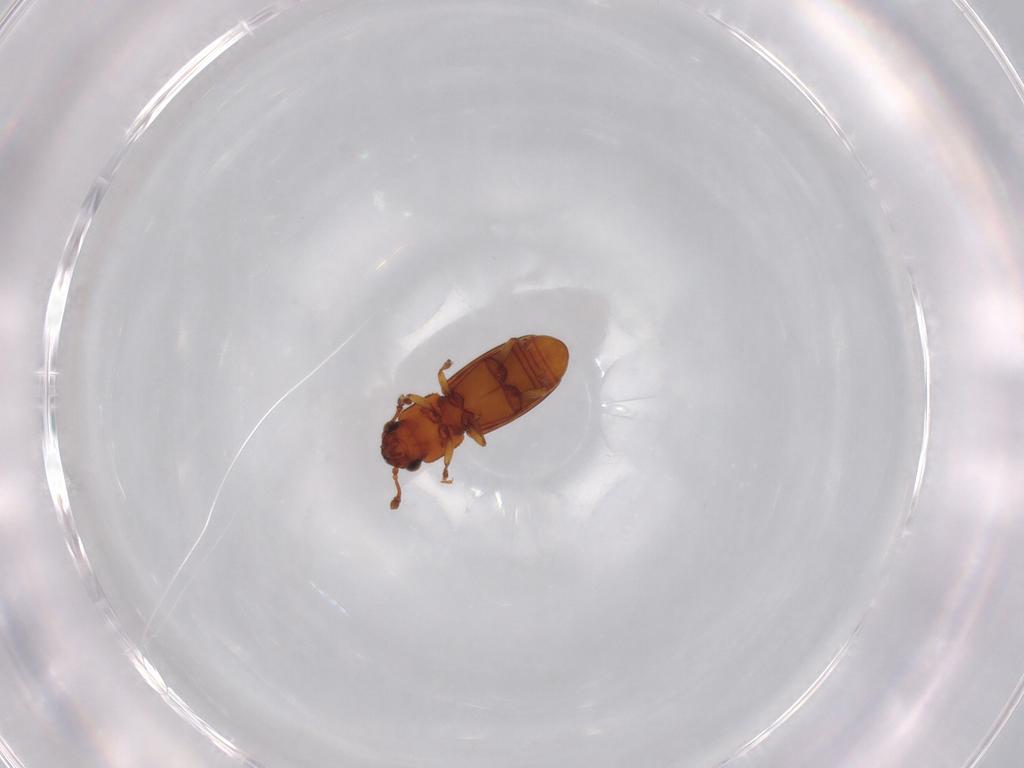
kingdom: Animalia
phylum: Arthropoda
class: Insecta
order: Coleoptera
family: Monotomidae
